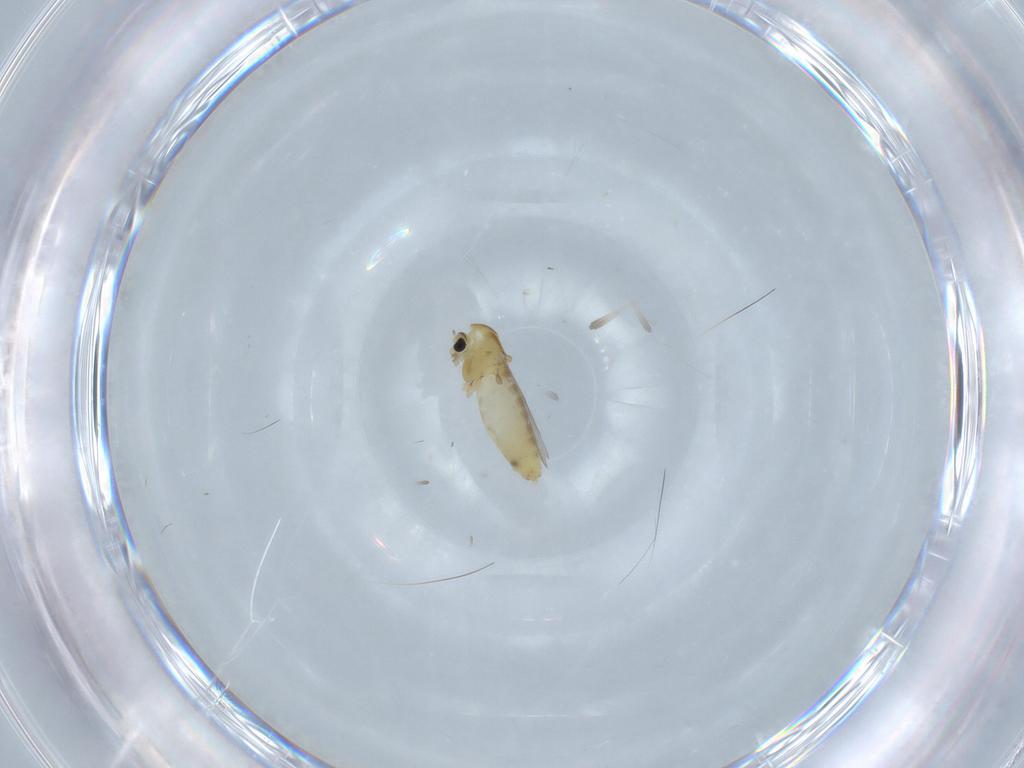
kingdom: Animalia
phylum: Arthropoda
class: Insecta
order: Diptera
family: Chironomidae
